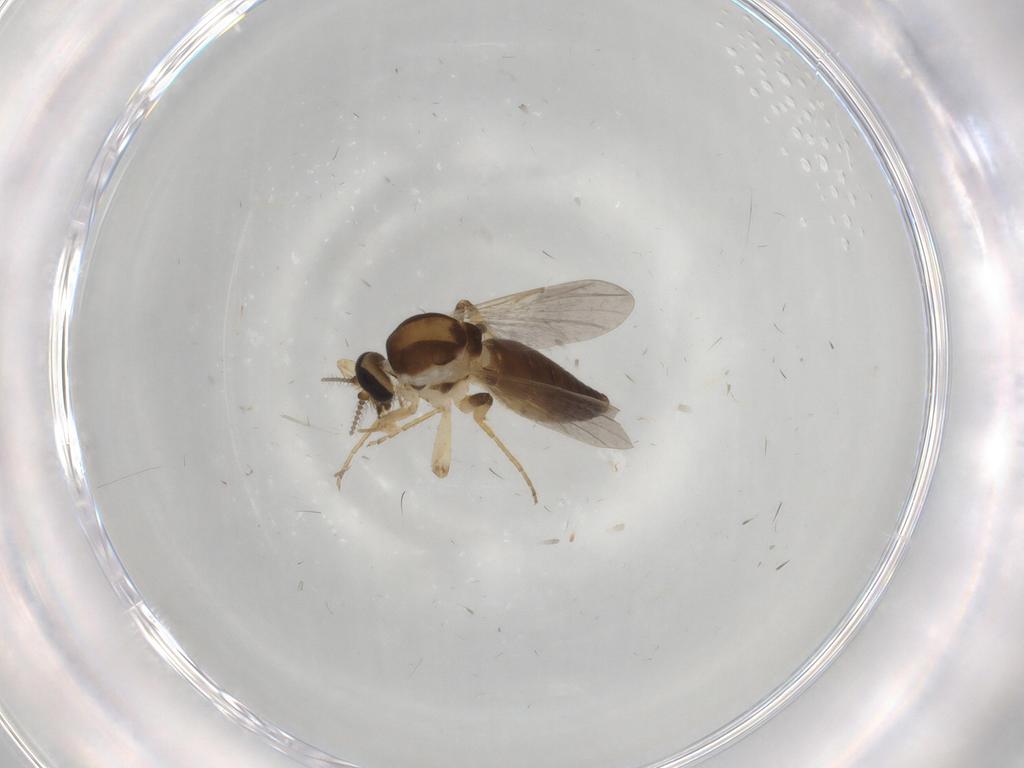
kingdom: Animalia
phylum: Arthropoda
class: Insecta
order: Diptera
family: Ceratopogonidae
